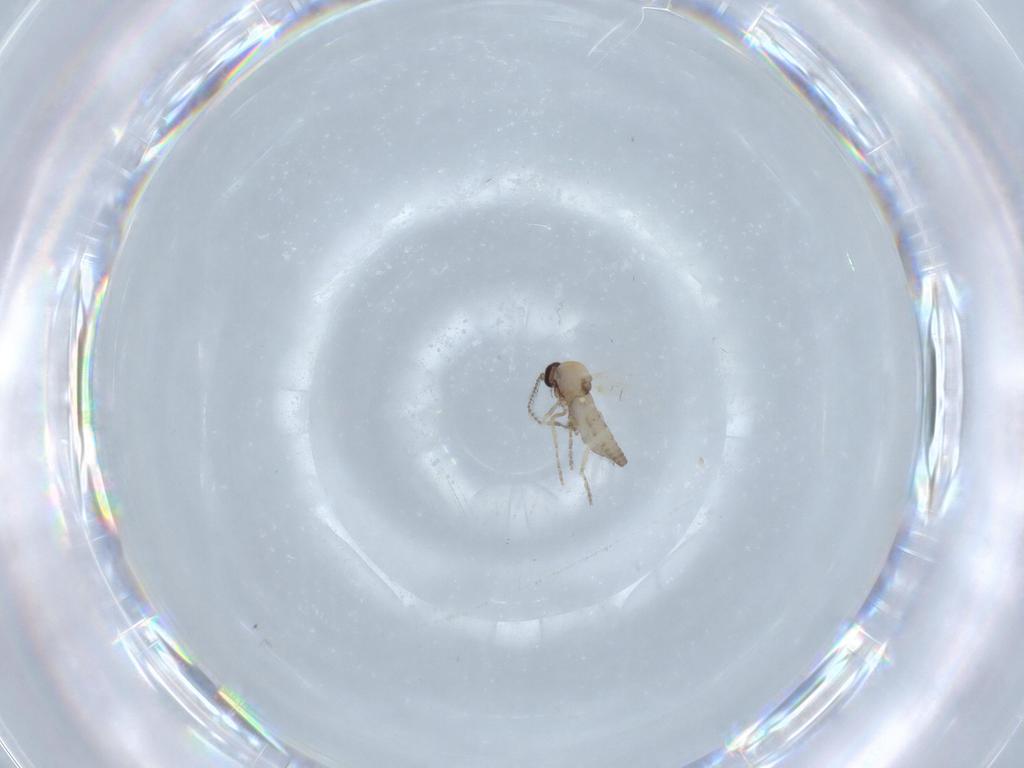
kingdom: Animalia
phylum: Arthropoda
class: Insecta
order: Diptera
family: Ceratopogonidae
